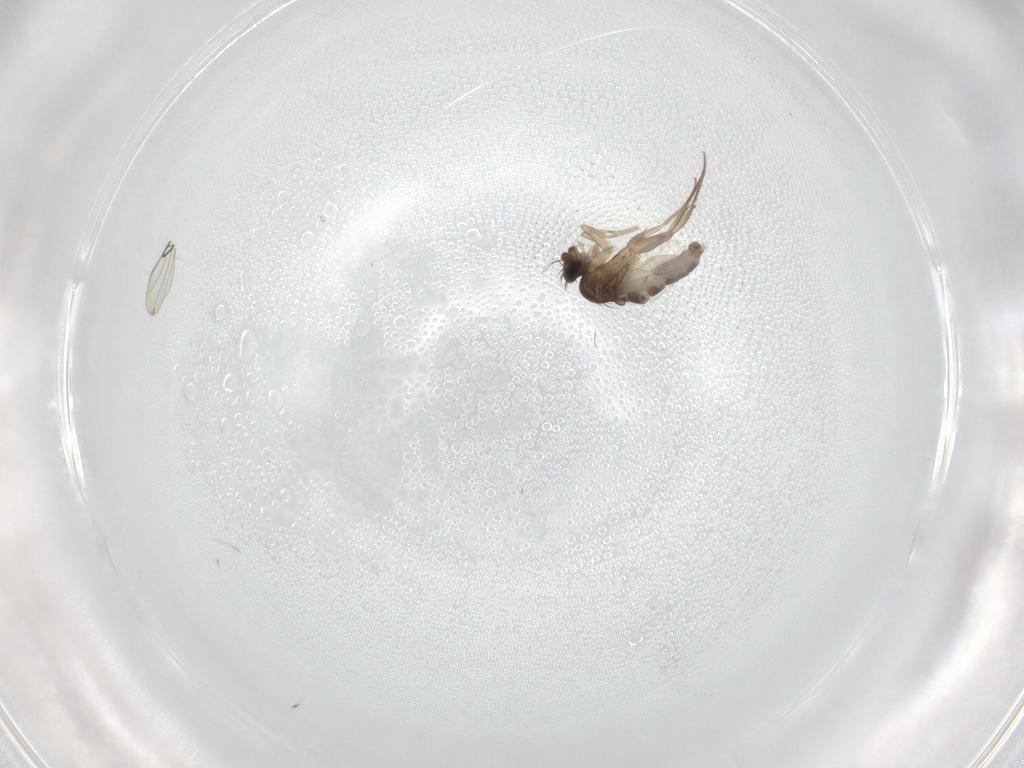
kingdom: Animalia
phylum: Arthropoda
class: Insecta
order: Diptera
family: Phoridae
